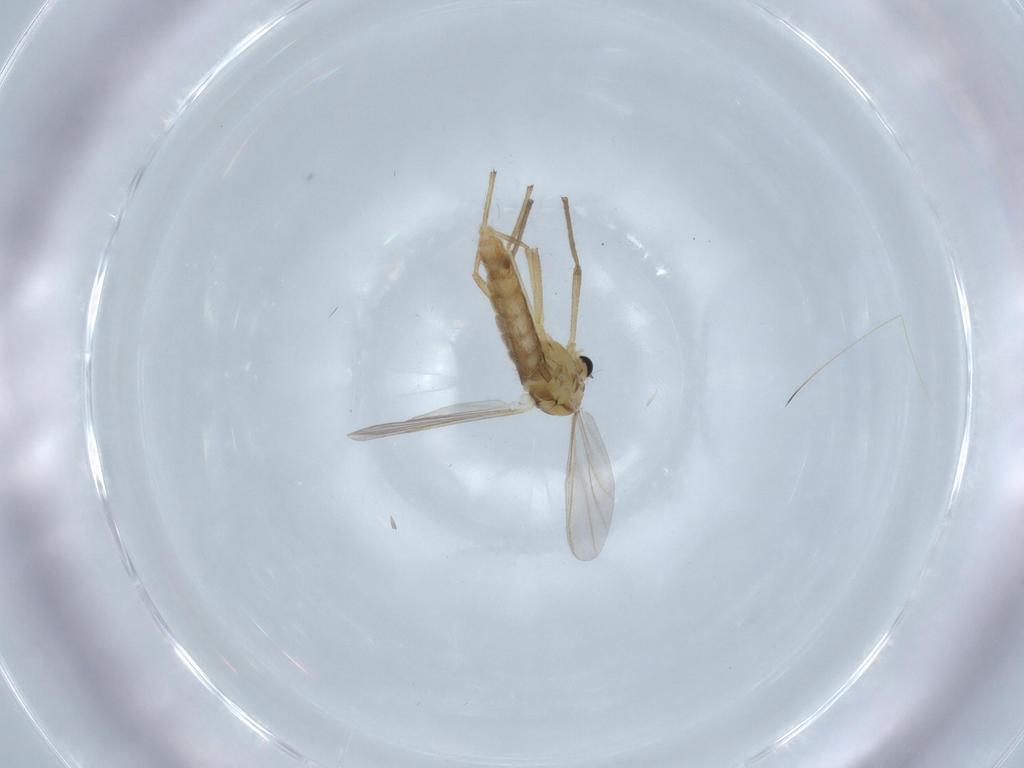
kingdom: Animalia
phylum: Arthropoda
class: Insecta
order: Diptera
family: Chironomidae
